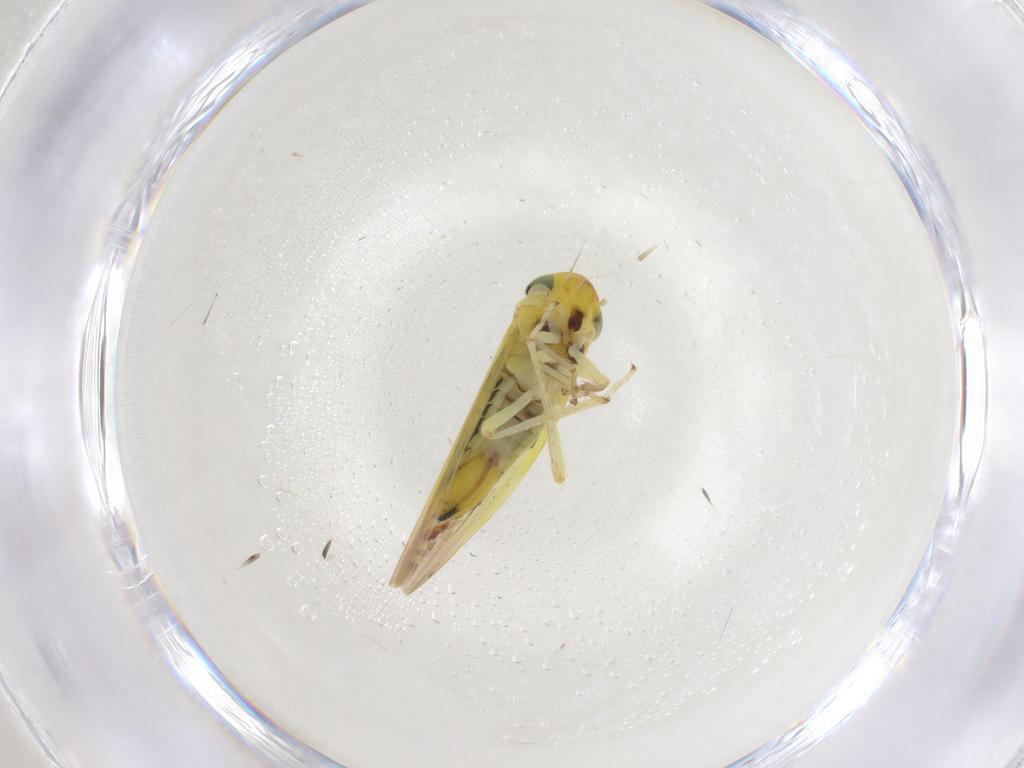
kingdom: Animalia
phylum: Arthropoda
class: Insecta
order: Hemiptera
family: Cicadellidae
